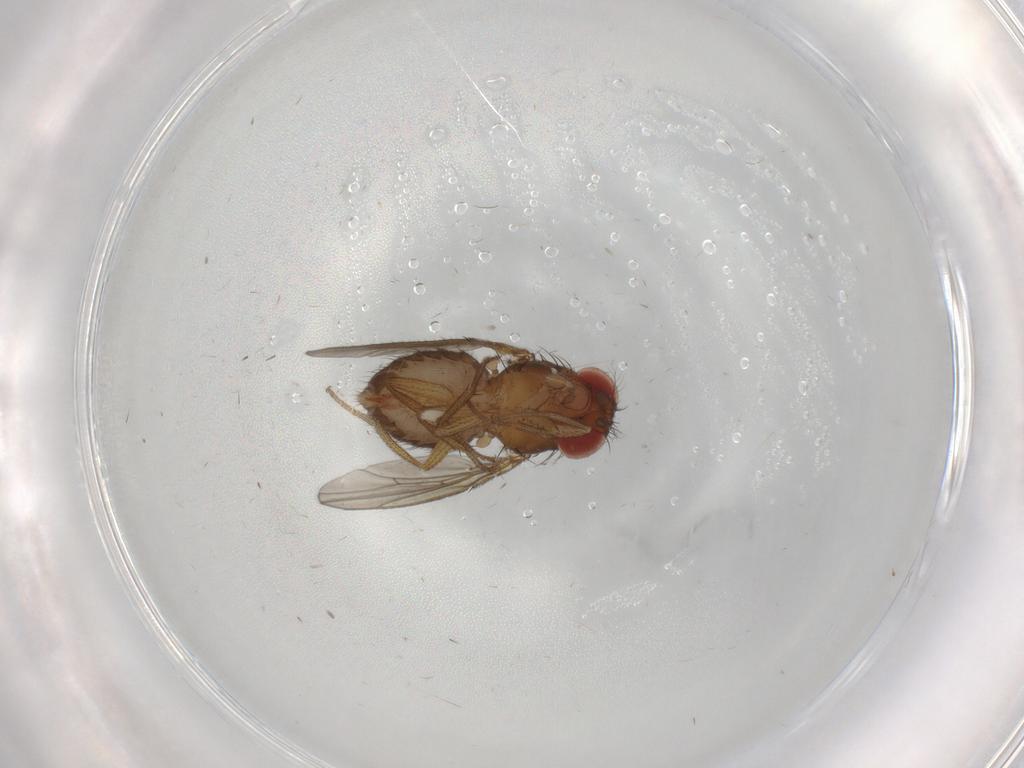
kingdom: Animalia
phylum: Arthropoda
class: Insecta
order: Diptera
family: Drosophilidae
